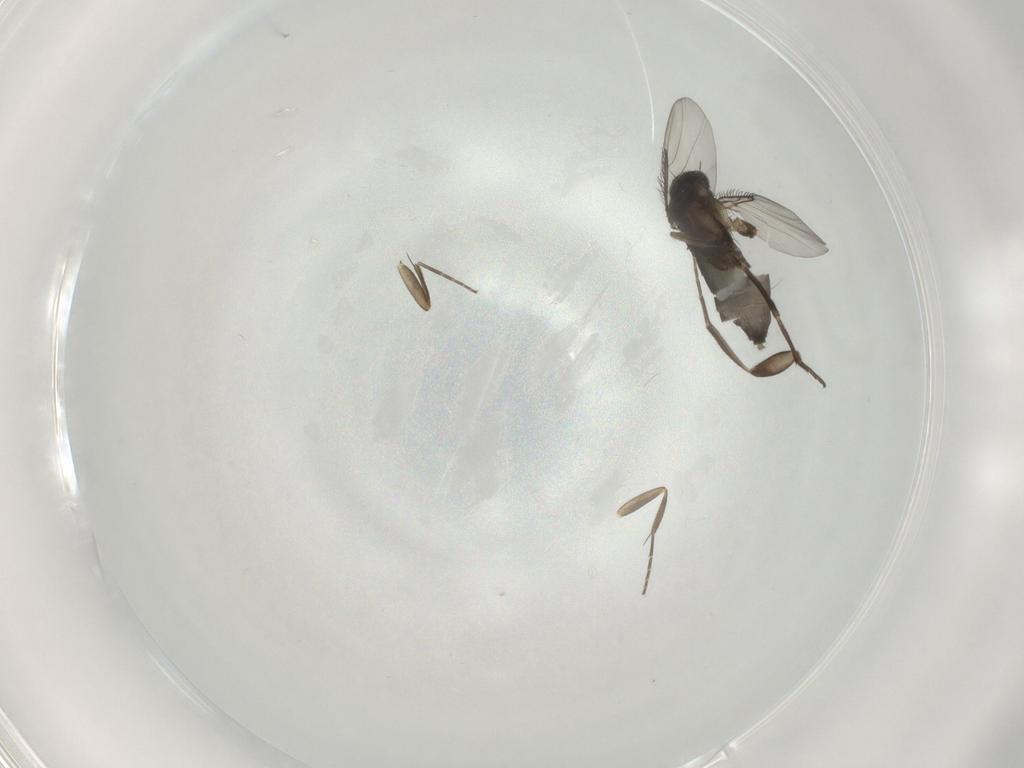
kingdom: Animalia
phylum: Arthropoda
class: Insecta
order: Diptera
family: Phoridae
